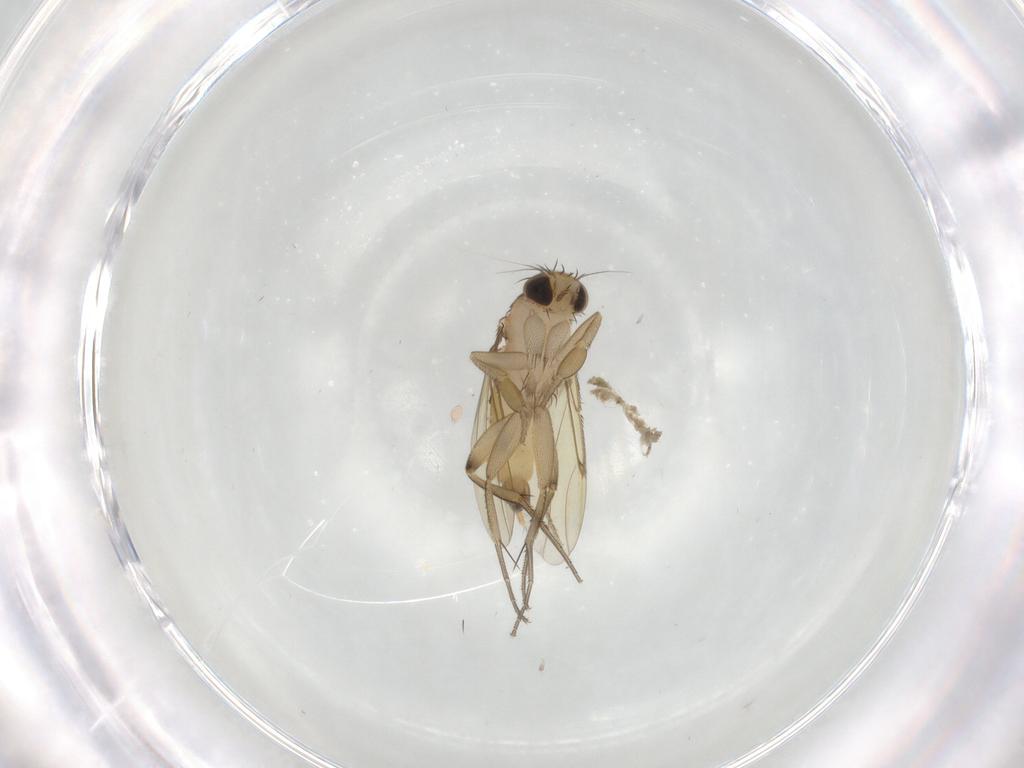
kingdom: Animalia
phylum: Arthropoda
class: Insecta
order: Diptera
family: Phoridae
